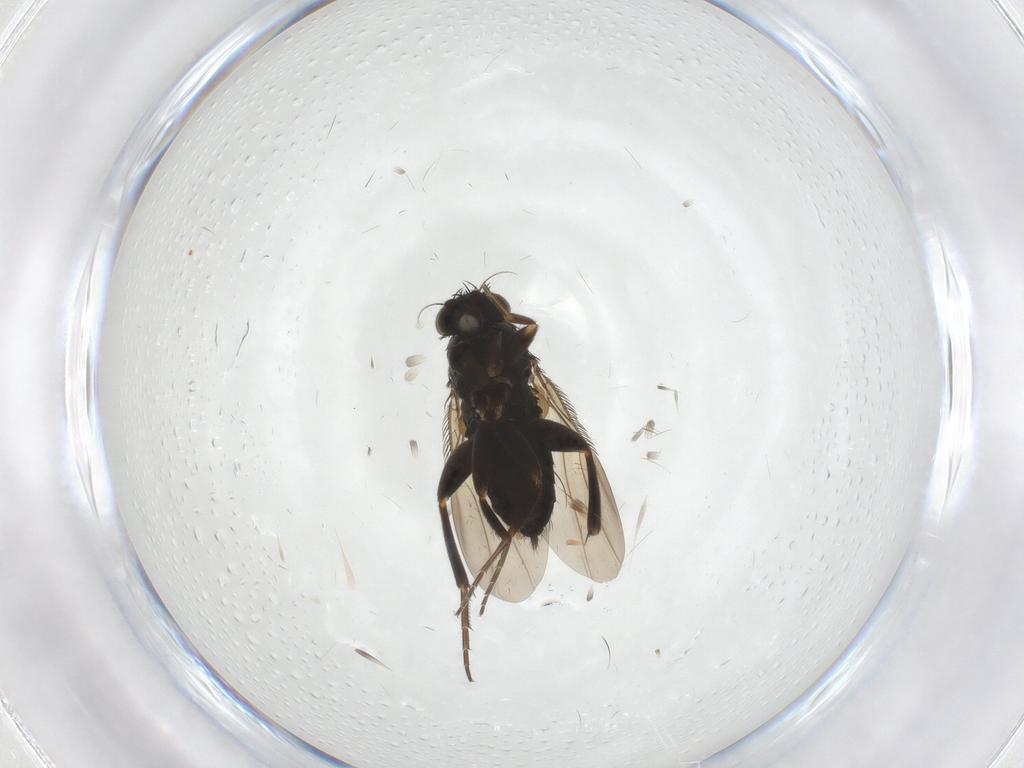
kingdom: Animalia
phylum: Arthropoda
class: Insecta
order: Diptera
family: Phoridae
